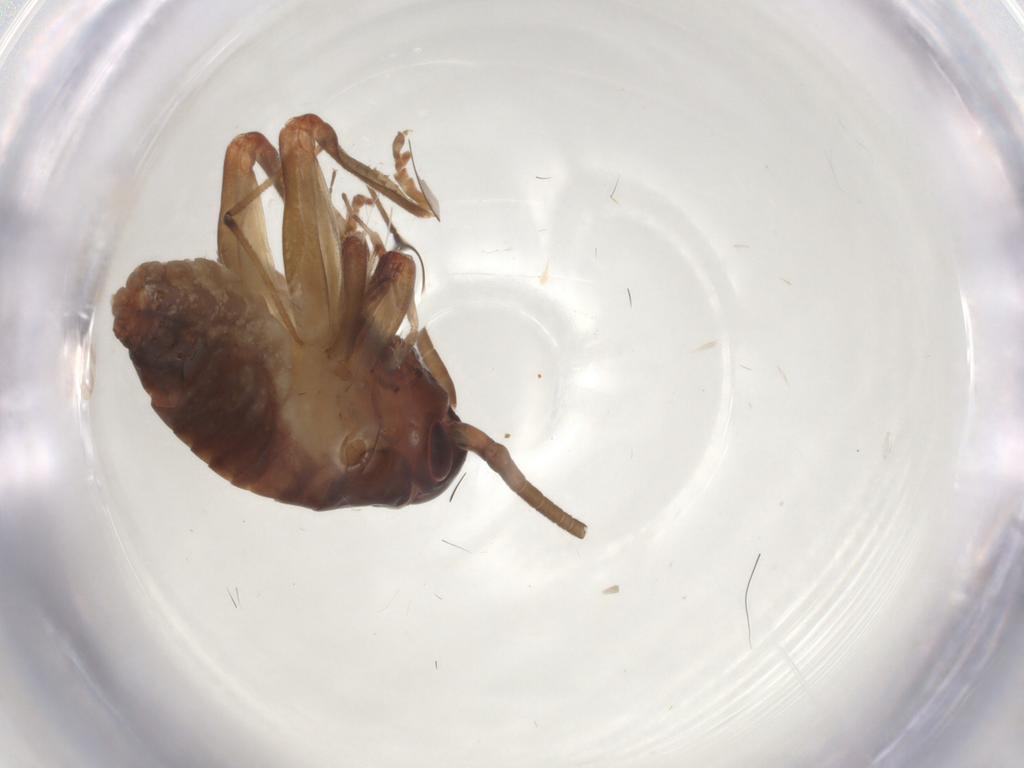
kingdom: Animalia
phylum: Arthropoda
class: Insecta
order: Orthoptera
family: Gryllacrididae
